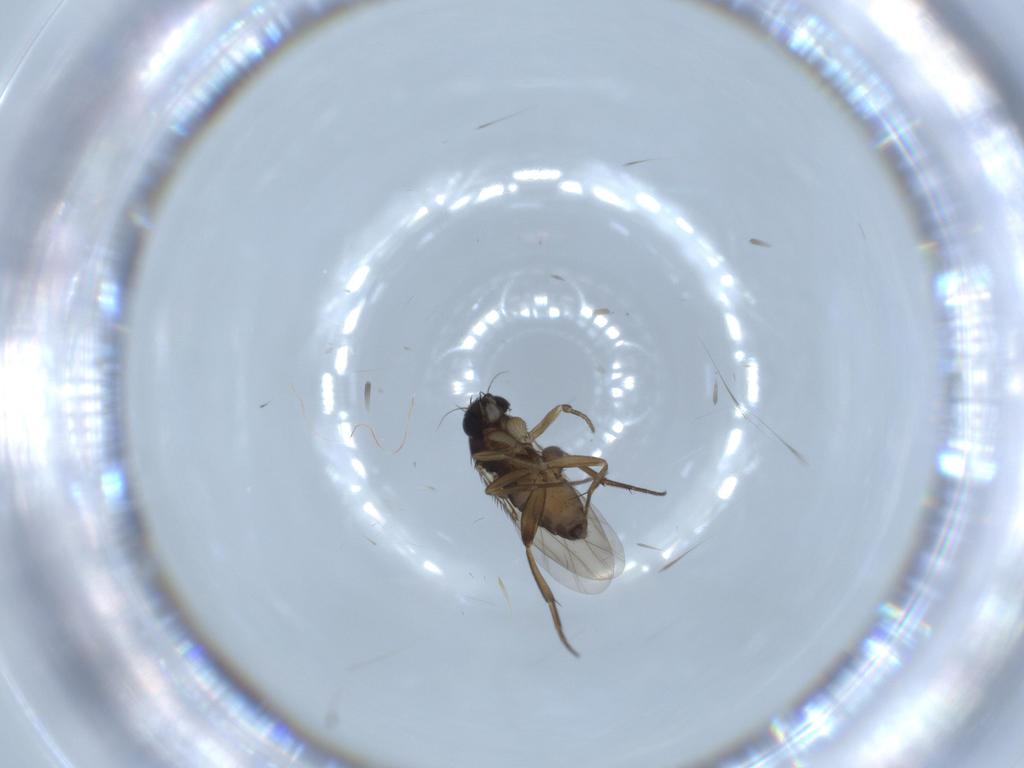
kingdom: Animalia
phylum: Arthropoda
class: Insecta
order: Diptera
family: Phoridae
